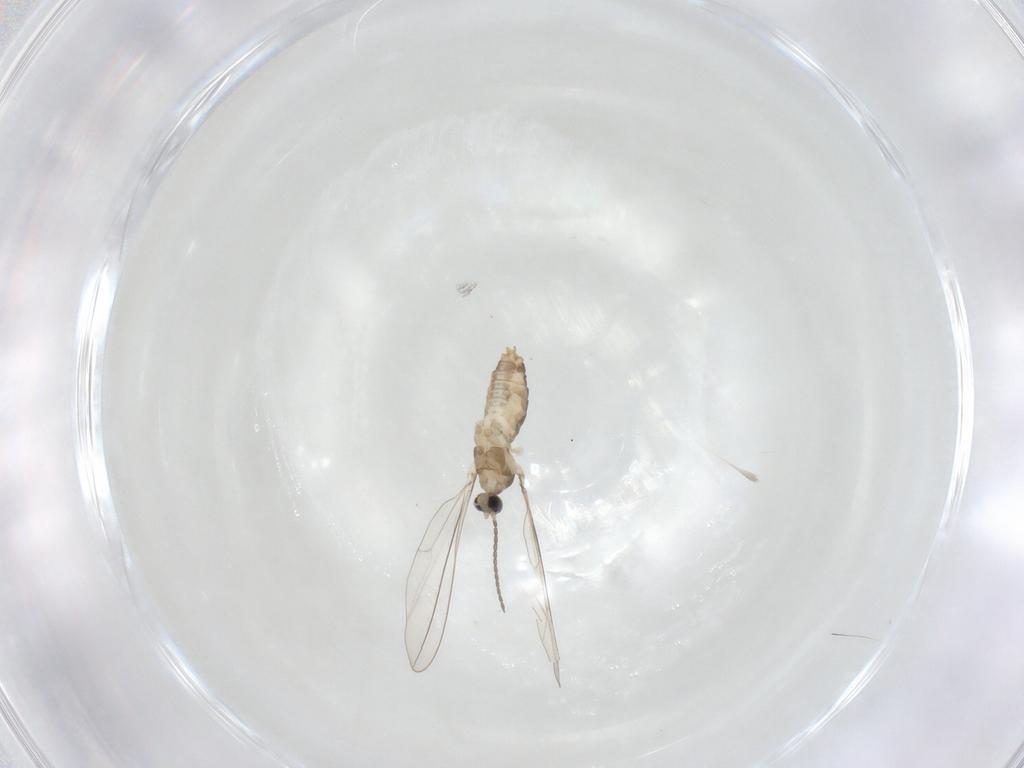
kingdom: Animalia
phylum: Arthropoda
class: Insecta
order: Diptera
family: Cecidomyiidae
